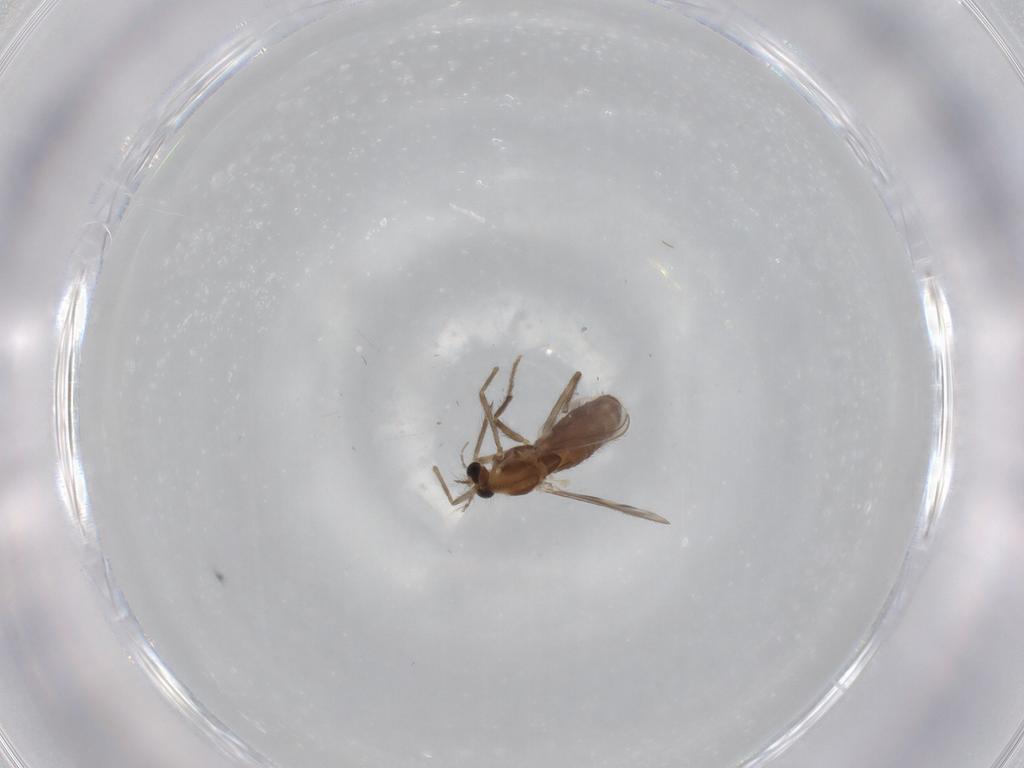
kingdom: Animalia
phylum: Arthropoda
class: Insecta
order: Diptera
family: Chironomidae
